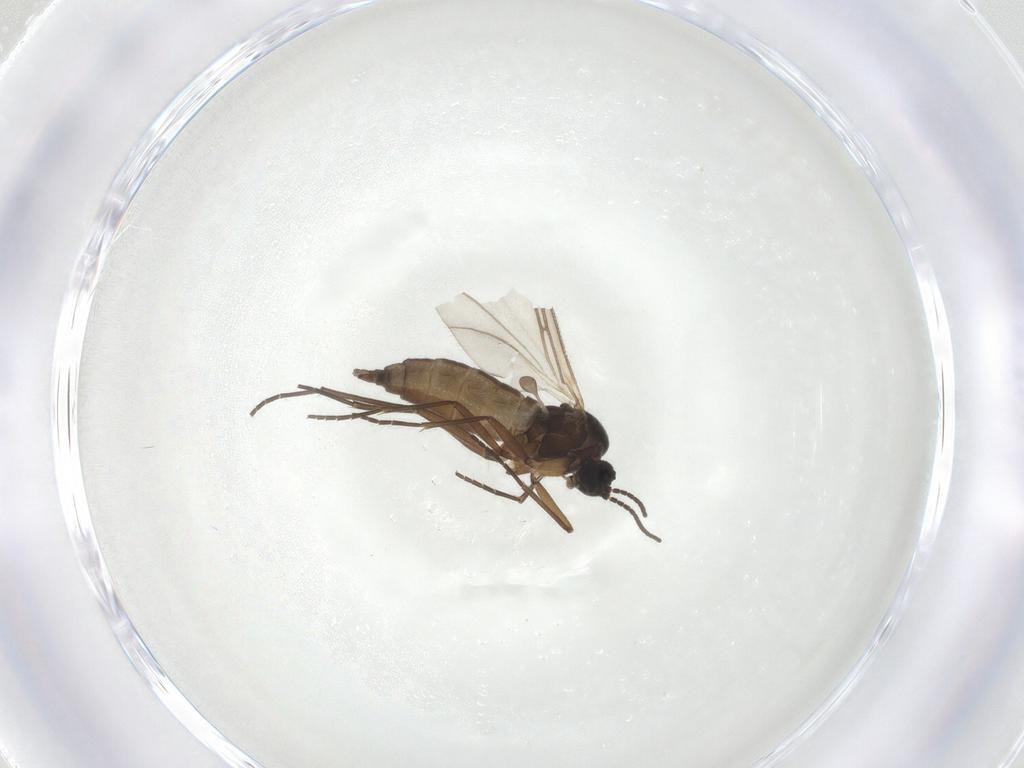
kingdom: Animalia
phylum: Arthropoda
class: Insecta
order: Diptera
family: Sciaridae
